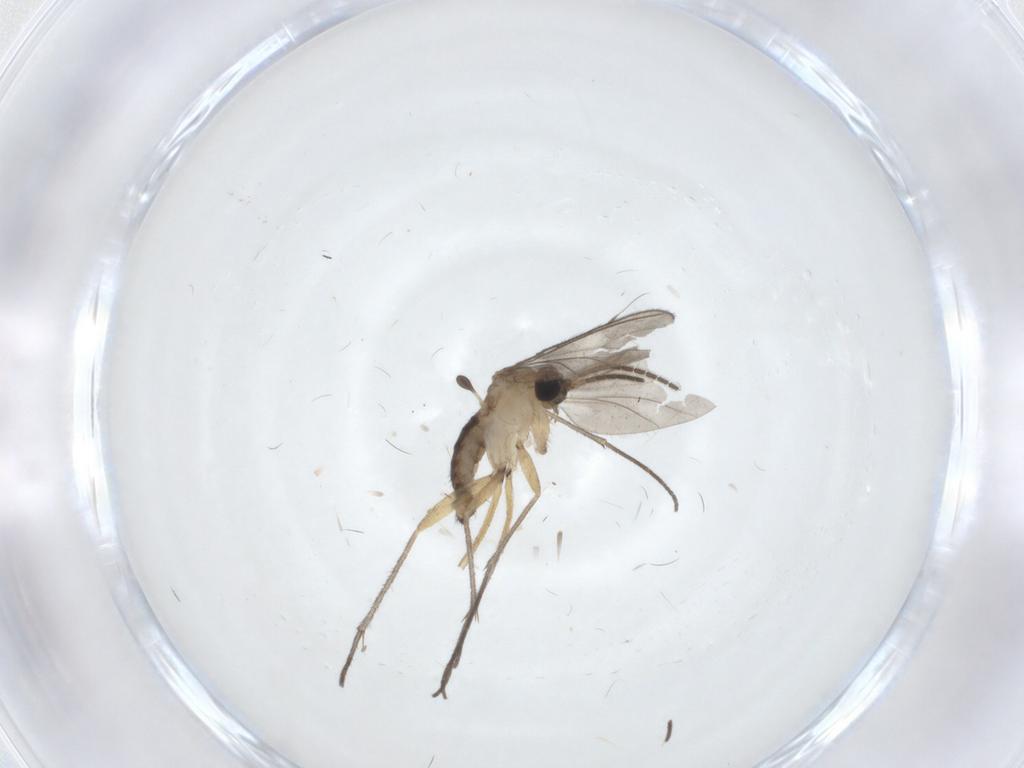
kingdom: Animalia
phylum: Arthropoda
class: Insecta
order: Diptera
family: Sciaridae
